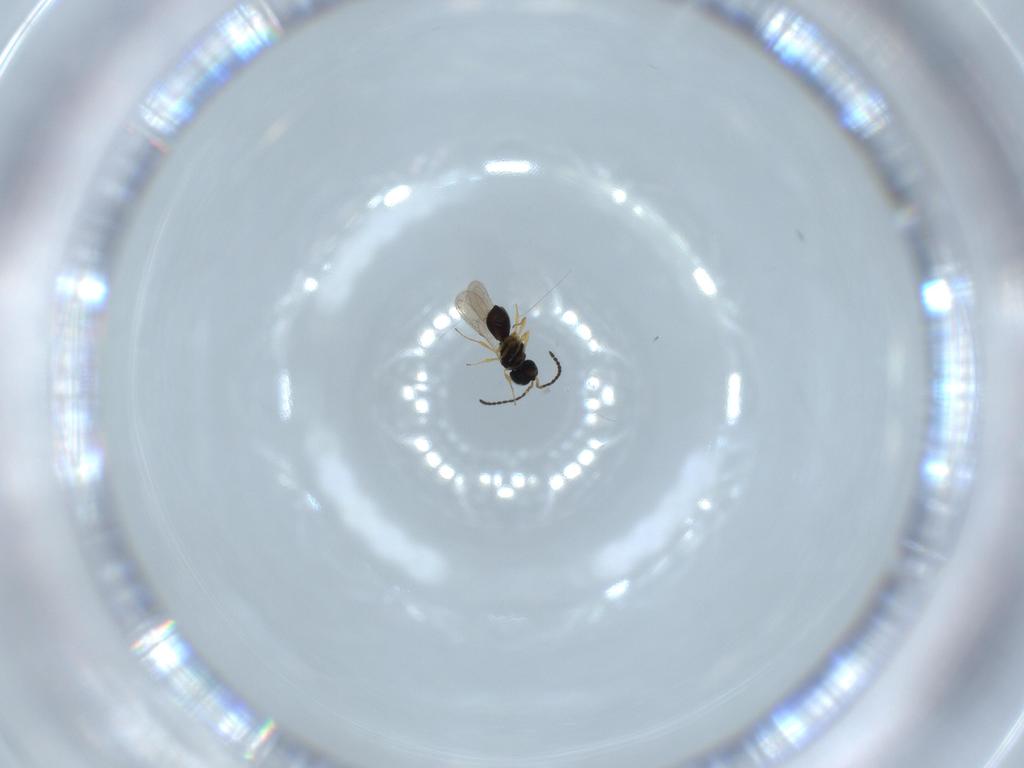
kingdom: Animalia
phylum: Arthropoda
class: Insecta
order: Hymenoptera
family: Scelionidae
